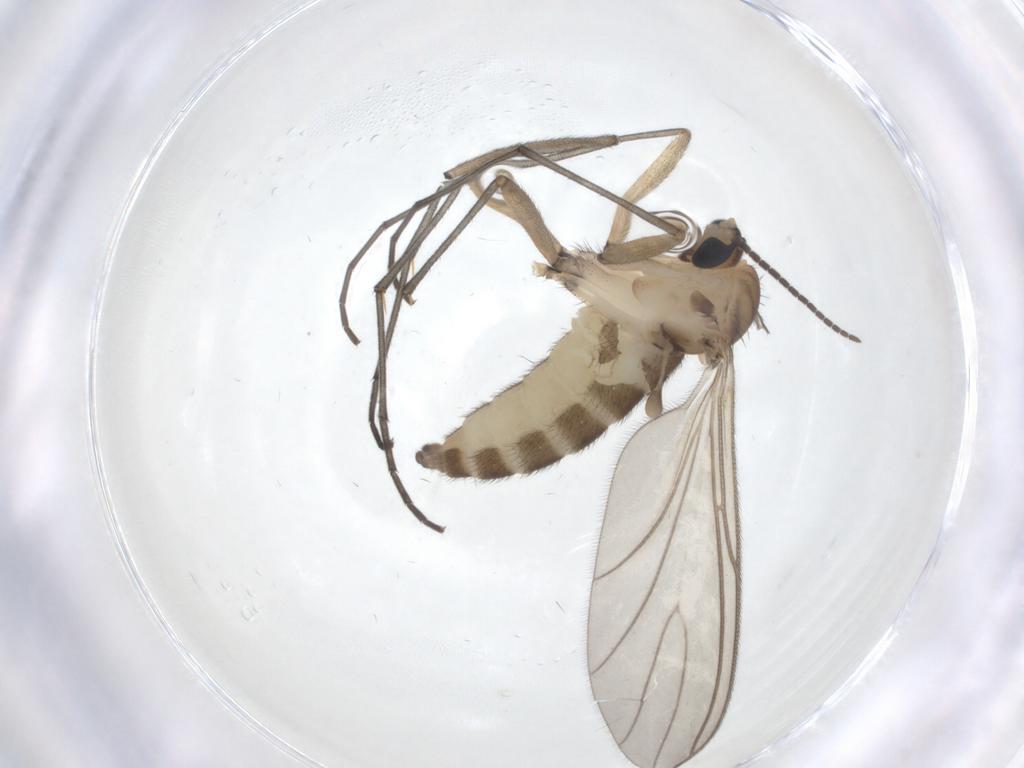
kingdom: Animalia
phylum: Arthropoda
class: Insecta
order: Diptera
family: Sciaridae
